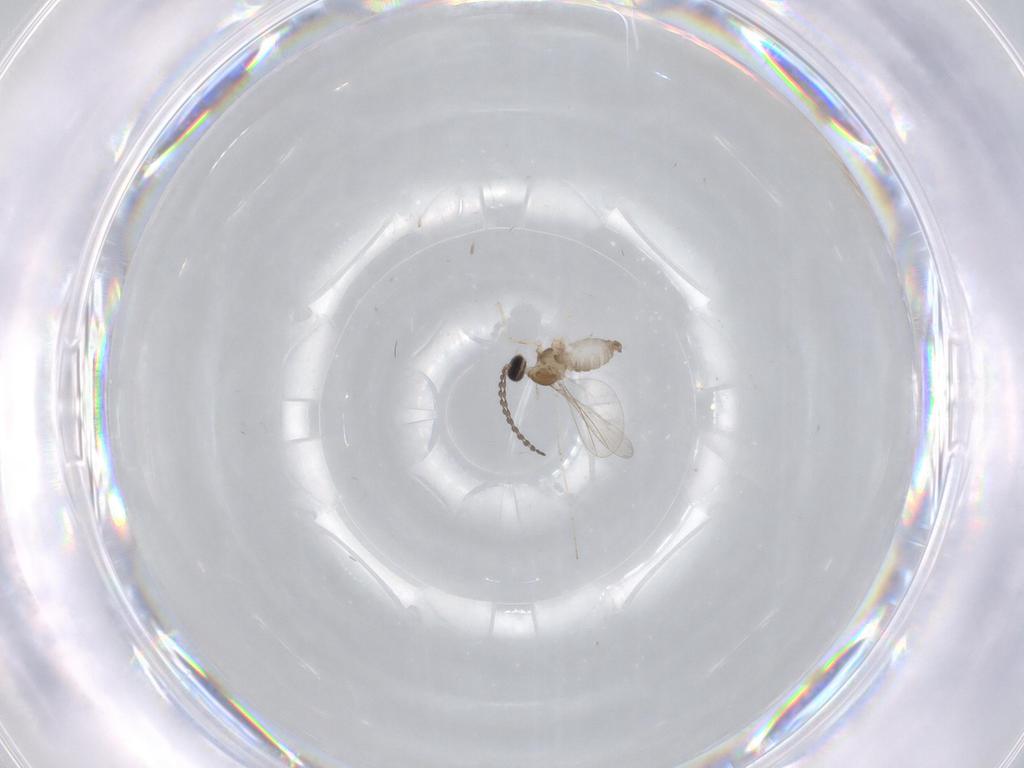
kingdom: Animalia
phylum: Arthropoda
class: Insecta
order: Diptera
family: Cecidomyiidae
